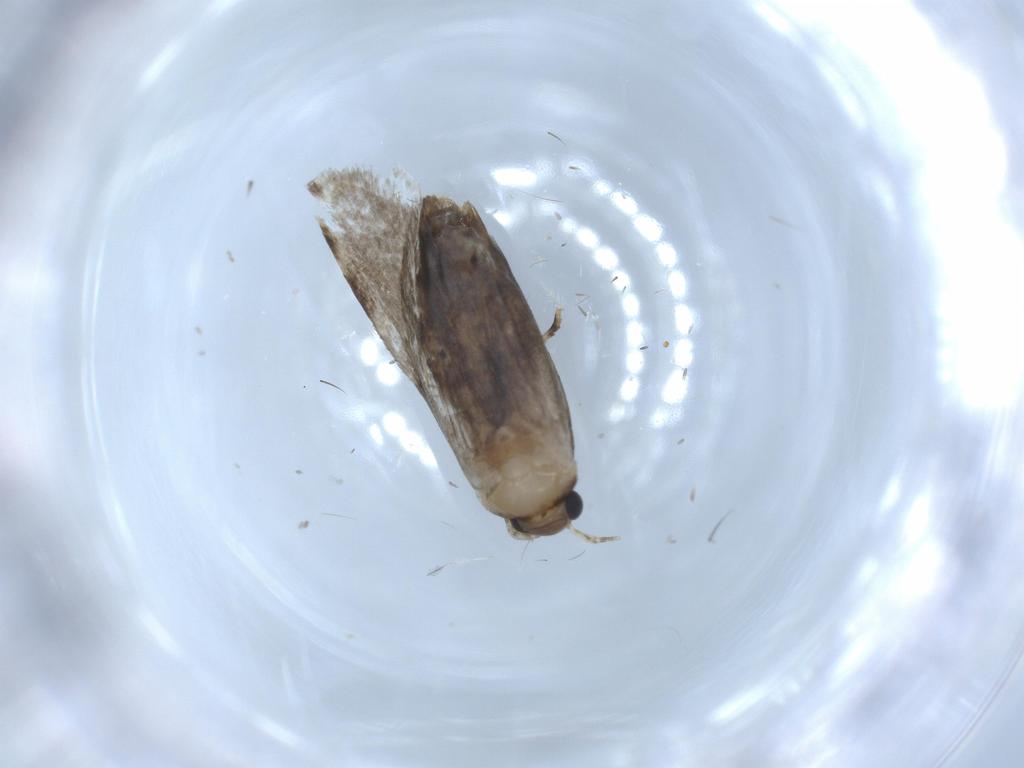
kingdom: Animalia
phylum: Arthropoda
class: Insecta
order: Lepidoptera
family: Tineidae
